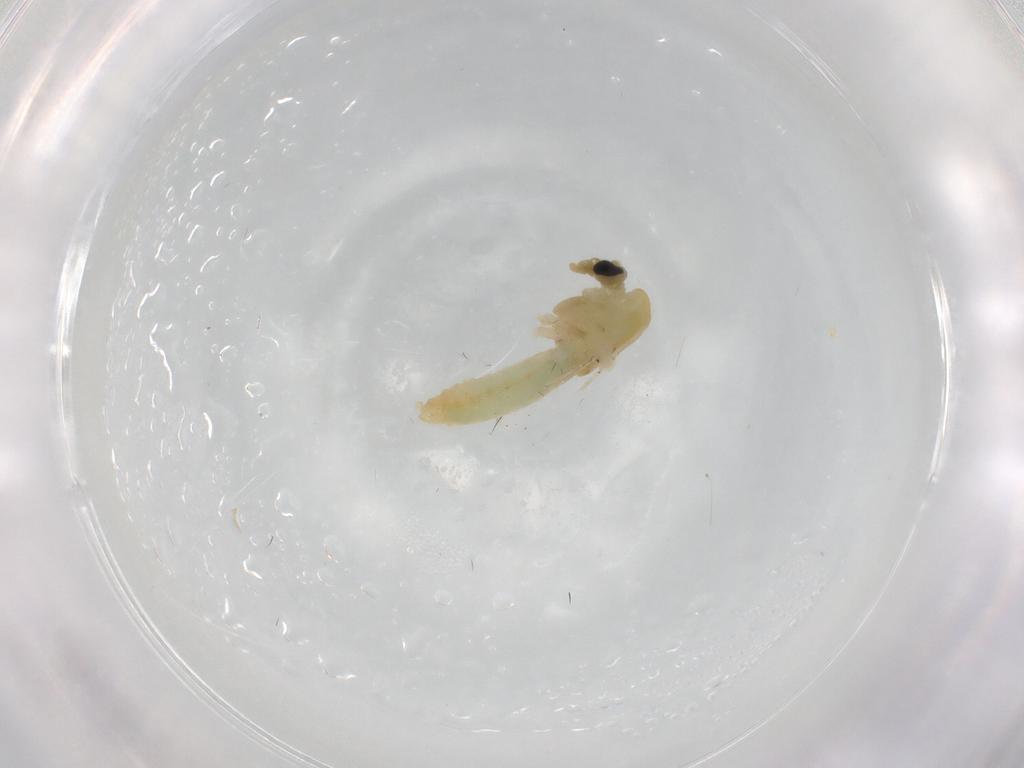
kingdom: Animalia
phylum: Arthropoda
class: Insecta
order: Diptera
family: Chironomidae
